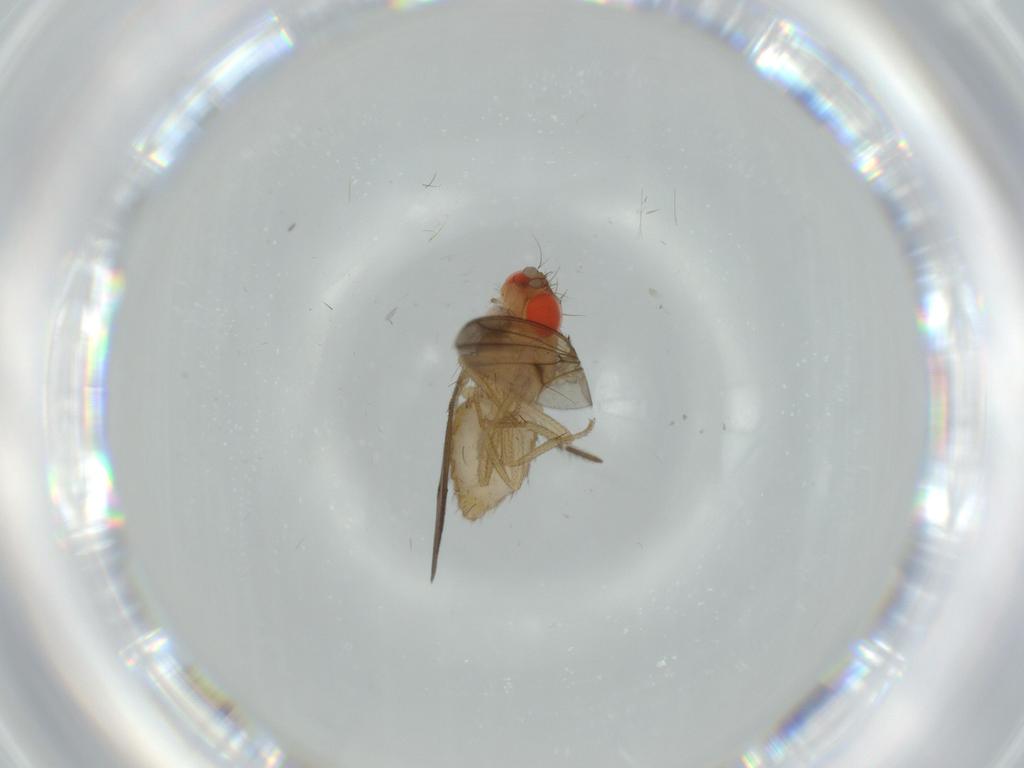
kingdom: Animalia
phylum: Arthropoda
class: Insecta
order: Diptera
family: Drosophilidae
